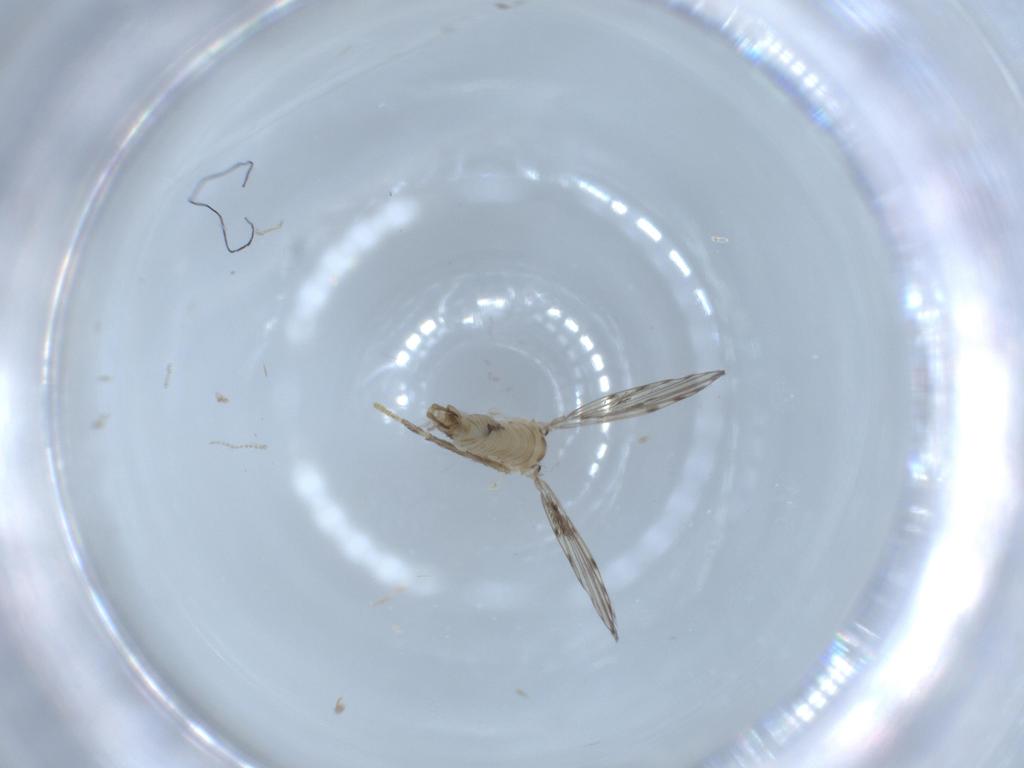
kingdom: Animalia
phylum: Arthropoda
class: Insecta
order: Diptera
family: Psychodidae
